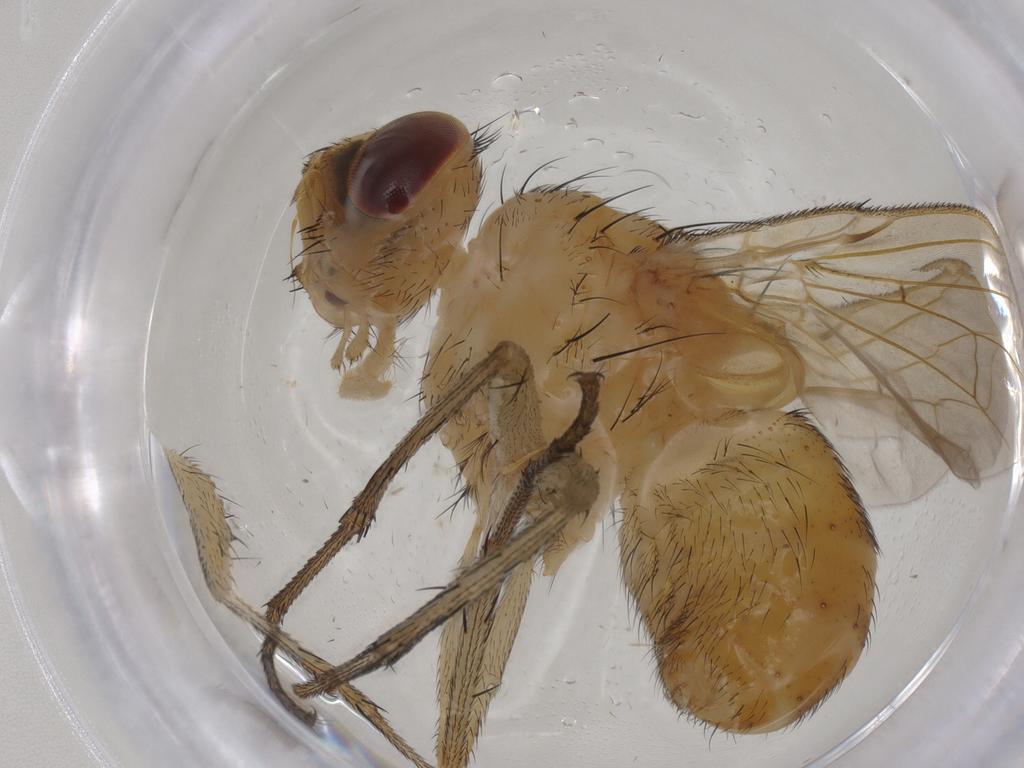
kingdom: Animalia
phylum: Arthropoda
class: Insecta
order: Diptera
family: Tachinidae
